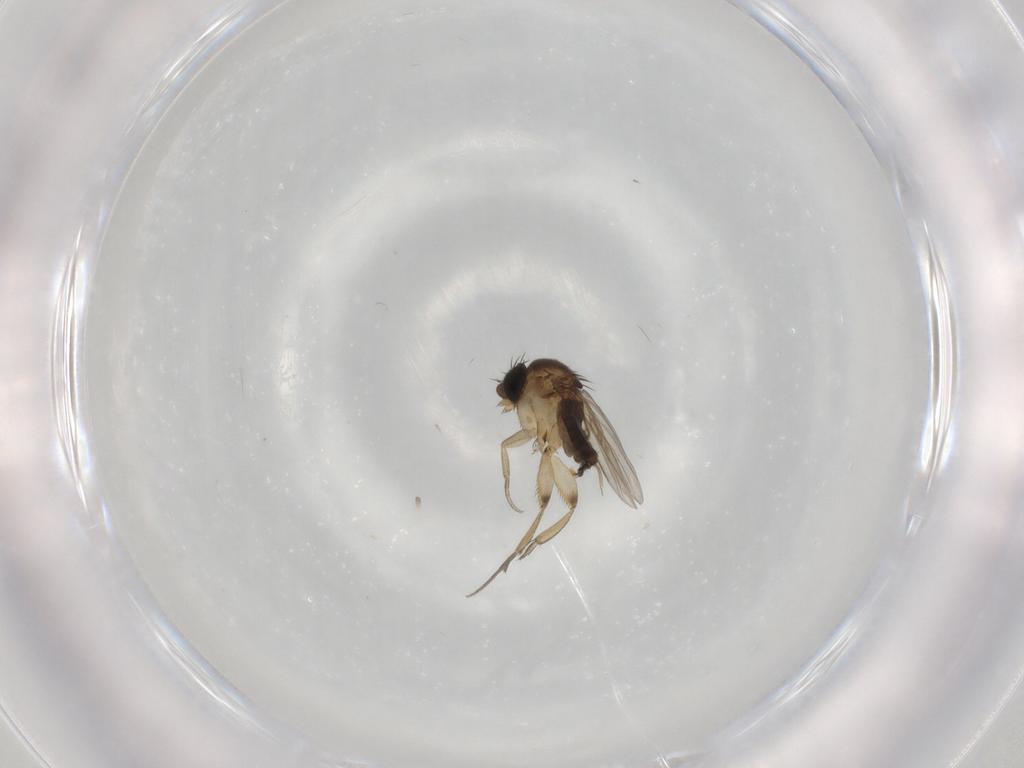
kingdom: Animalia
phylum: Arthropoda
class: Insecta
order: Diptera
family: Phoridae
